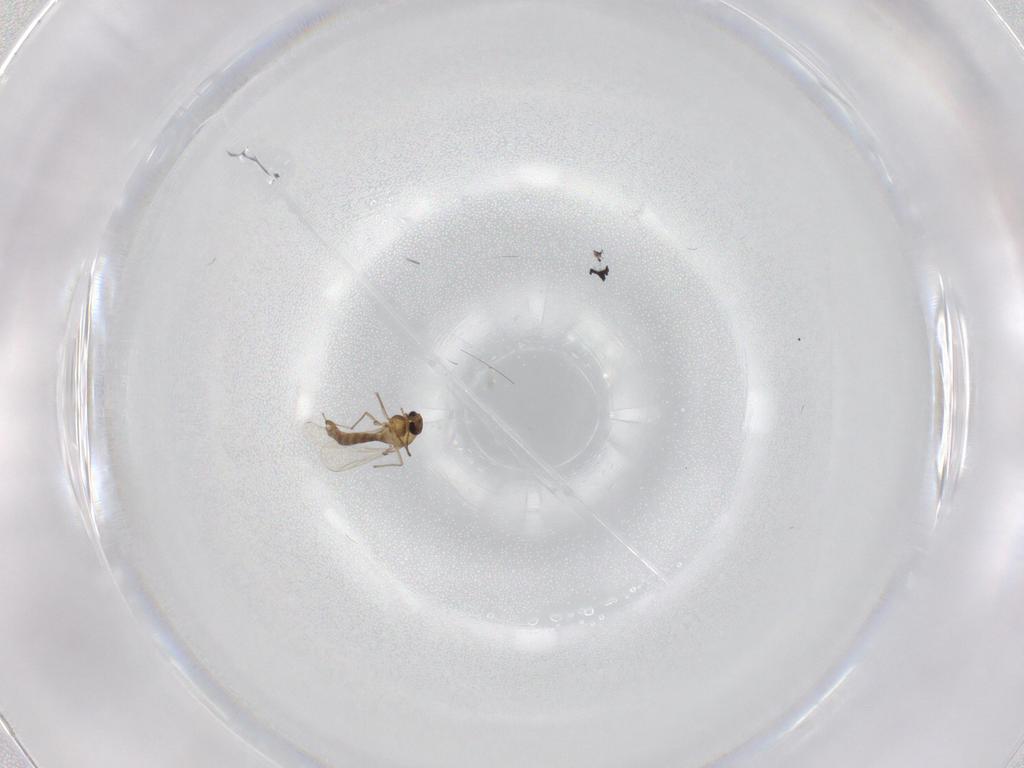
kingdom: Animalia
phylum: Arthropoda
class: Insecta
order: Diptera
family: Chironomidae
